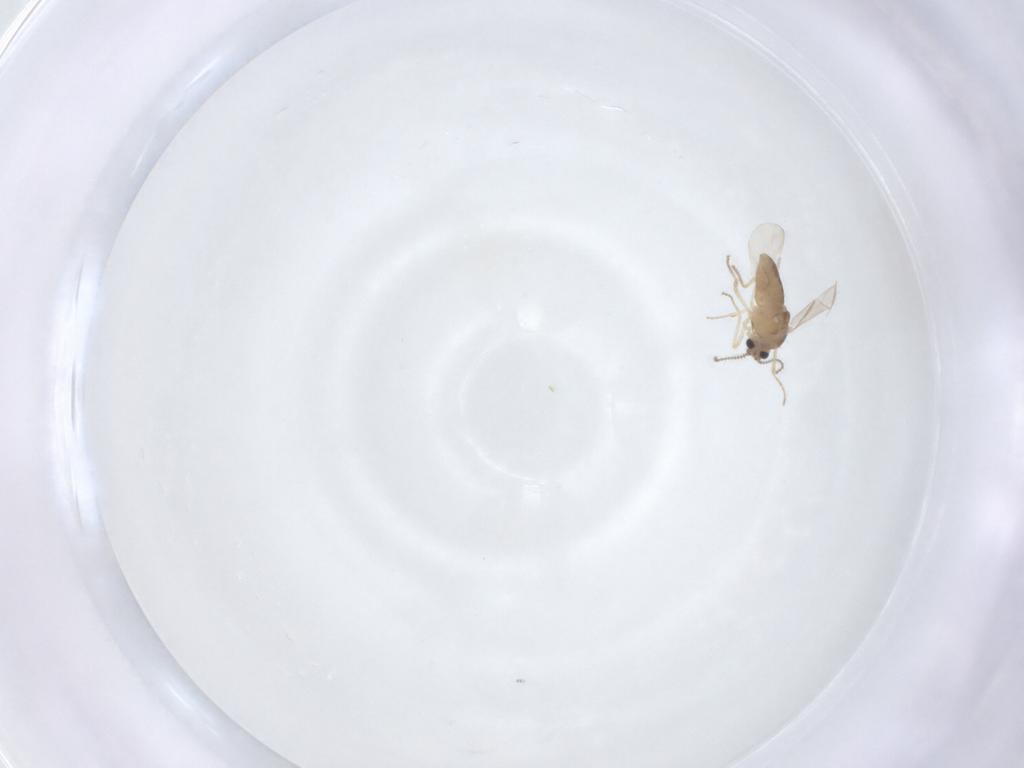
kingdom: Animalia
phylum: Arthropoda
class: Insecta
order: Diptera
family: Ceratopogonidae
